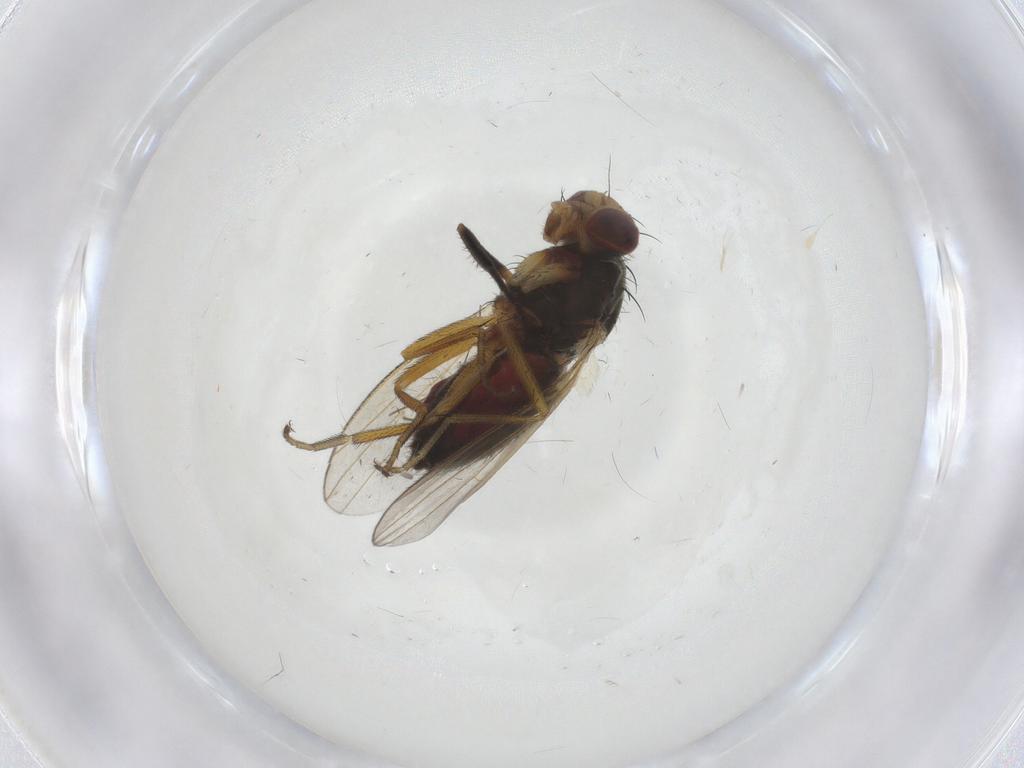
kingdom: Animalia
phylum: Arthropoda
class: Insecta
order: Diptera
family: Heleomyzidae
